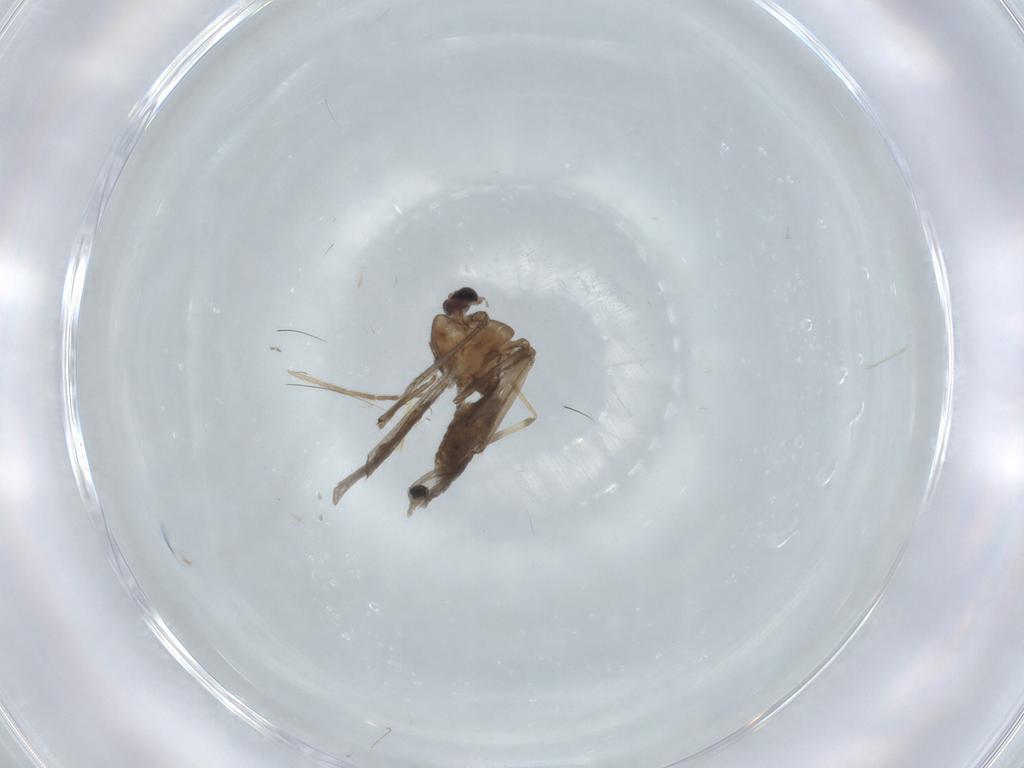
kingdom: Animalia
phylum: Arthropoda
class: Insecta
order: Diptera
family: Chironomidae
